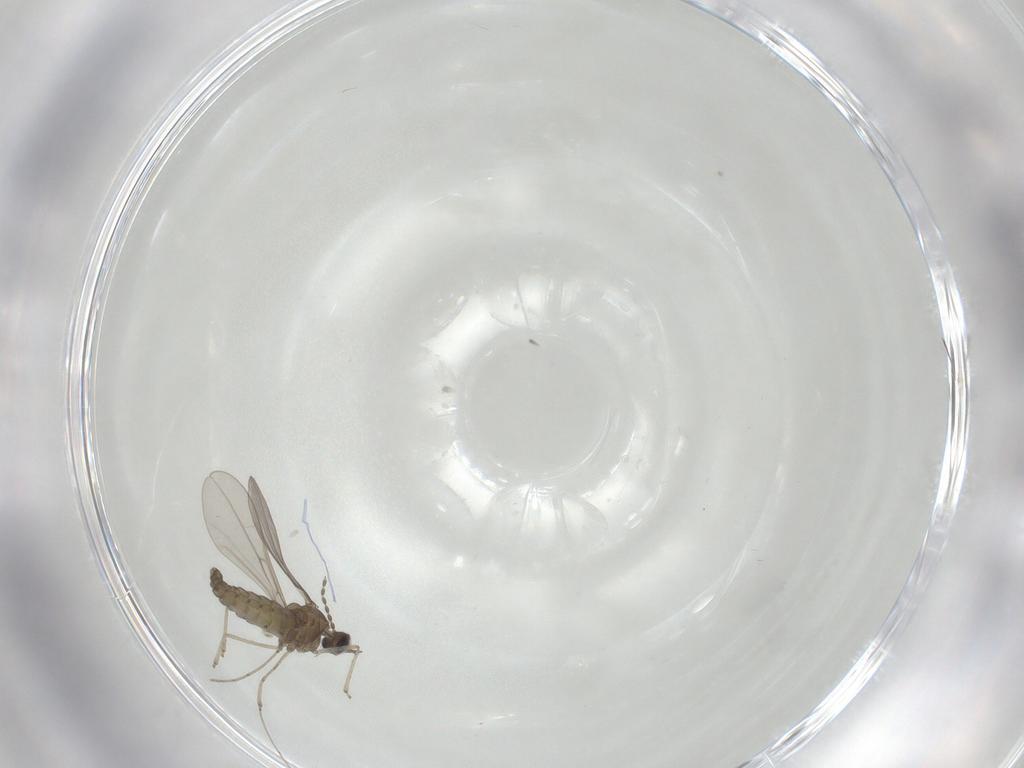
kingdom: Animalia
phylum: Arthropoda
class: Insecta
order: Diptera
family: Cecidomyiidae
